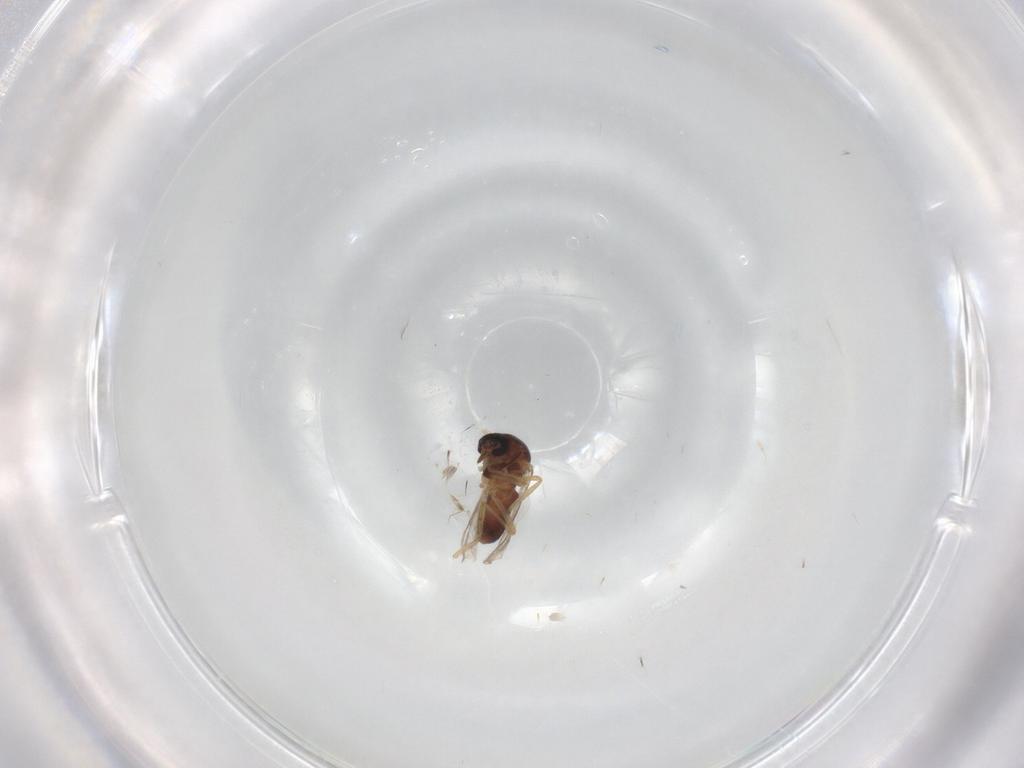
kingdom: Animalia
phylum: Arthropoda
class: Insecta
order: Diptera
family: Ceratopogonidae
